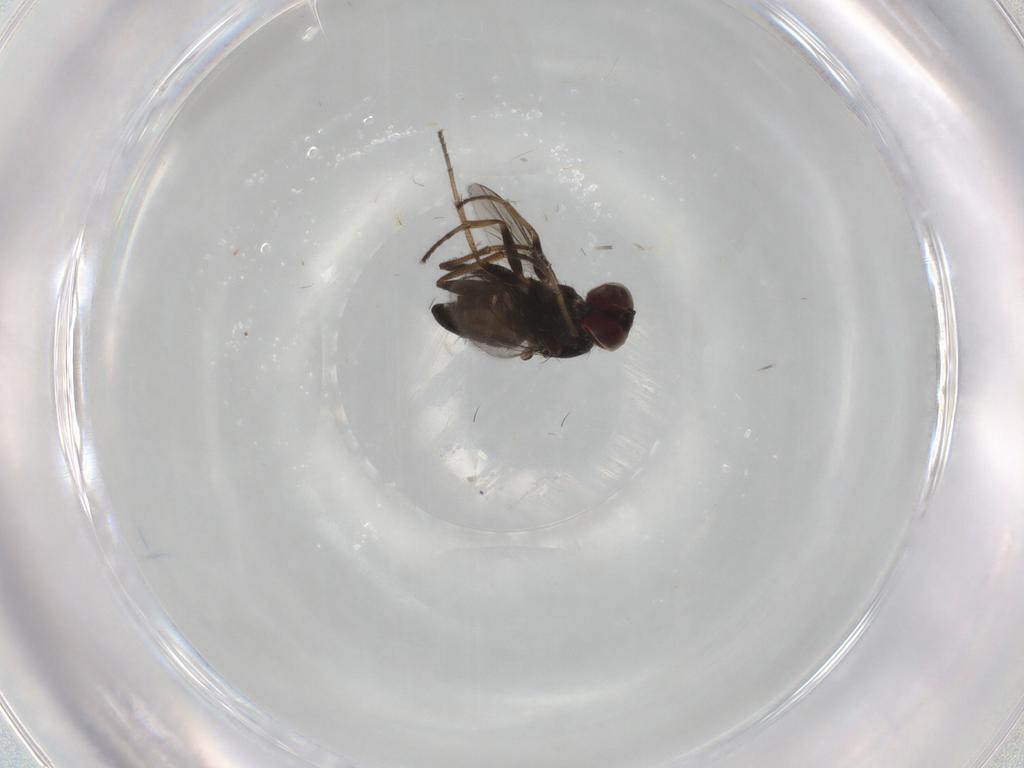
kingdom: Animalia
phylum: Arthropoda
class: Insecta
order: Diptera
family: Dolichopodidae
